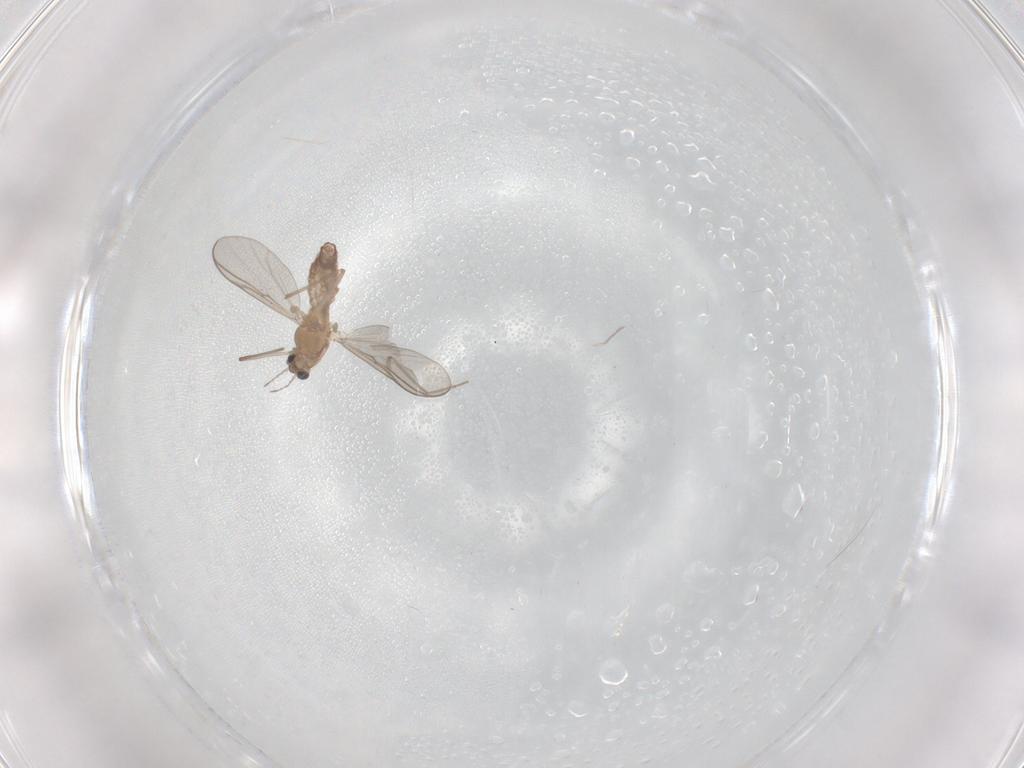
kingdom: Animalia
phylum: Arthropoda
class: Insecta
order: Diptera
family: Chironomidae
